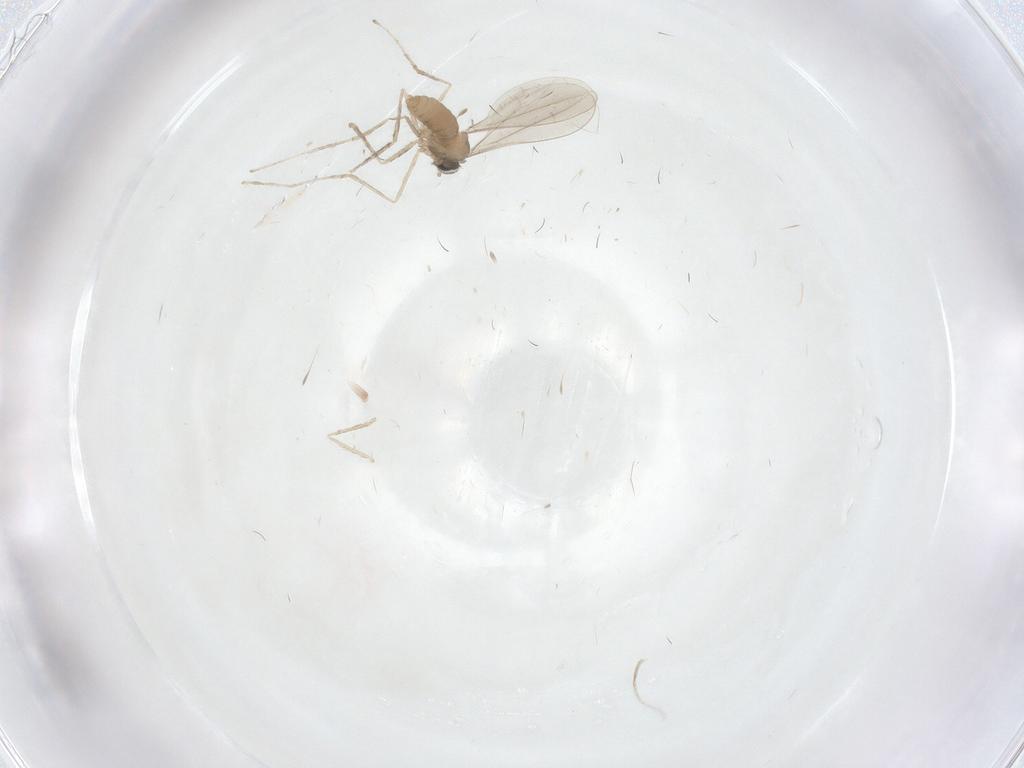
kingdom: Animalia
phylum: Arthropoda
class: Insecta
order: Diptera
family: Cecidomyiidae
